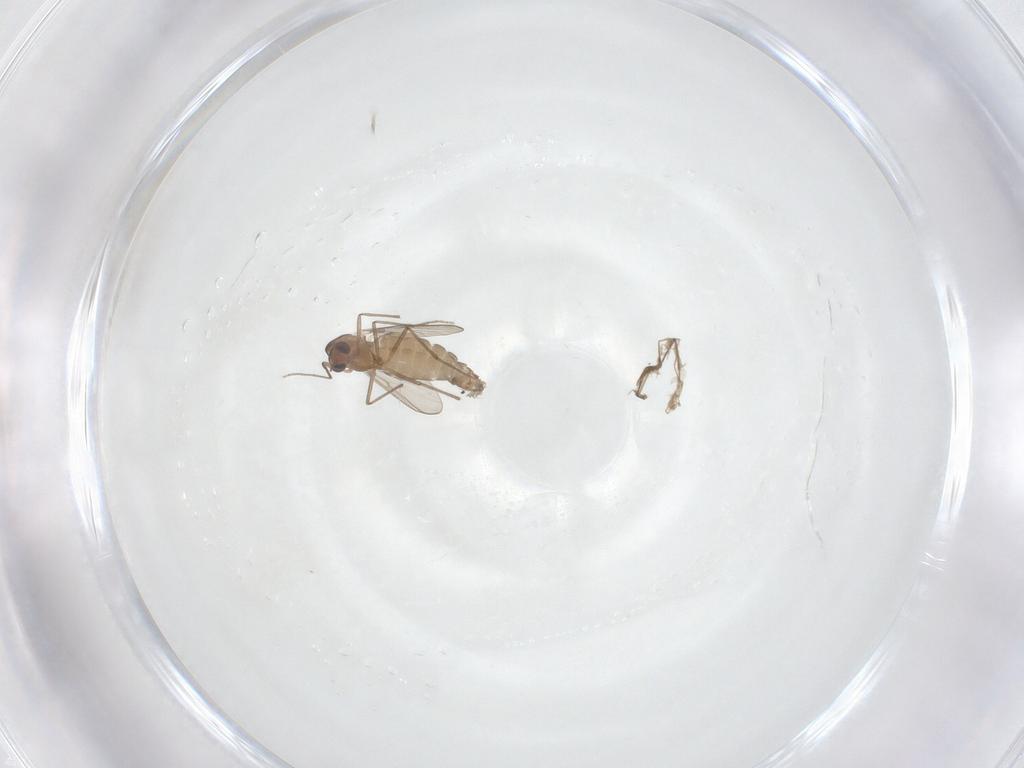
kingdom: Animalia
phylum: Arthropoda
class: Insecta
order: Diptera
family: Chironomidae
